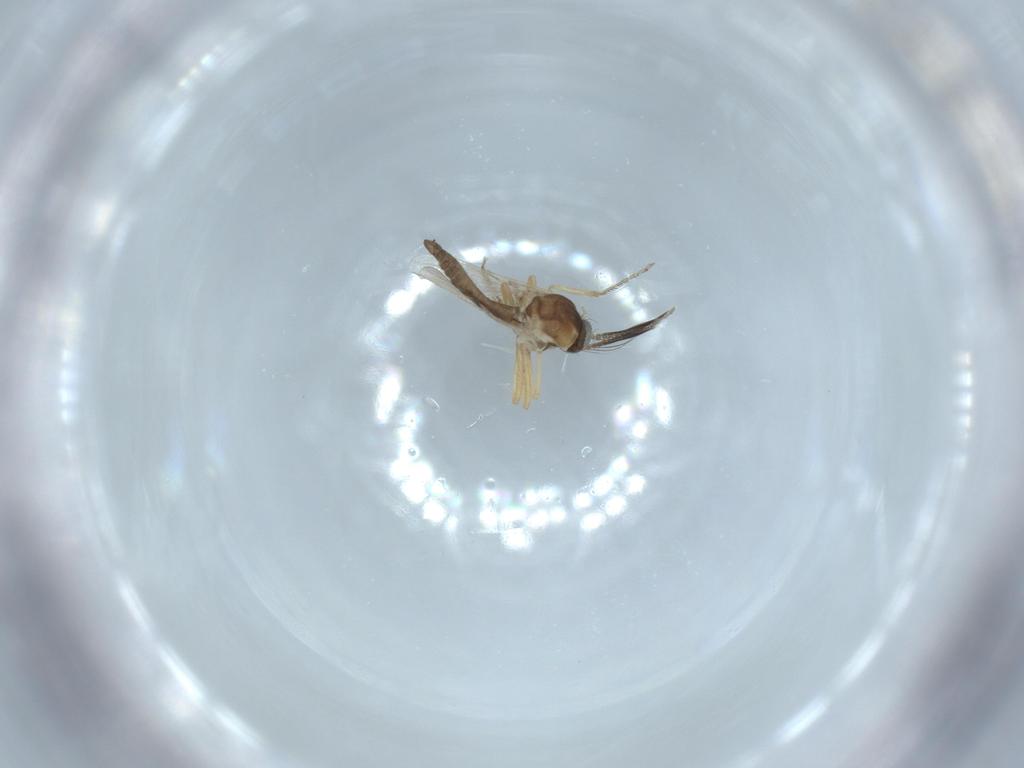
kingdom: Animalia
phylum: Arthropoda
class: Insecta
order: Diptera
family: Ceratopogonidae
